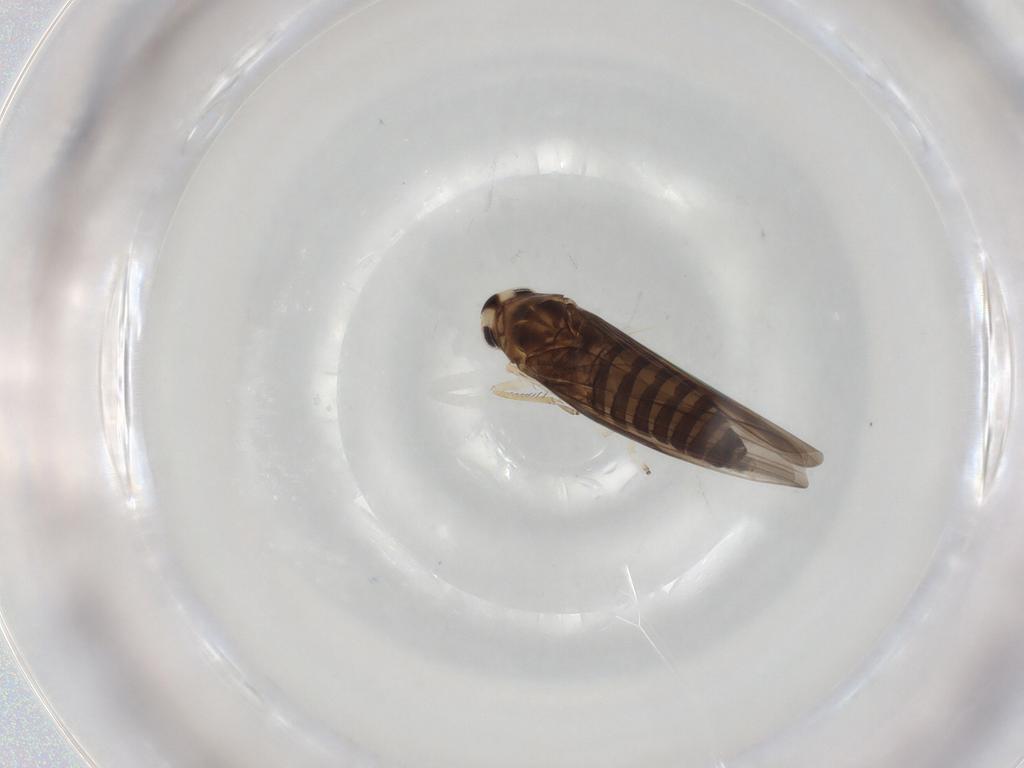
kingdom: Animalia
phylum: Arthropoda
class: Insecta
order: Hemiptera
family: Cicadellidae
